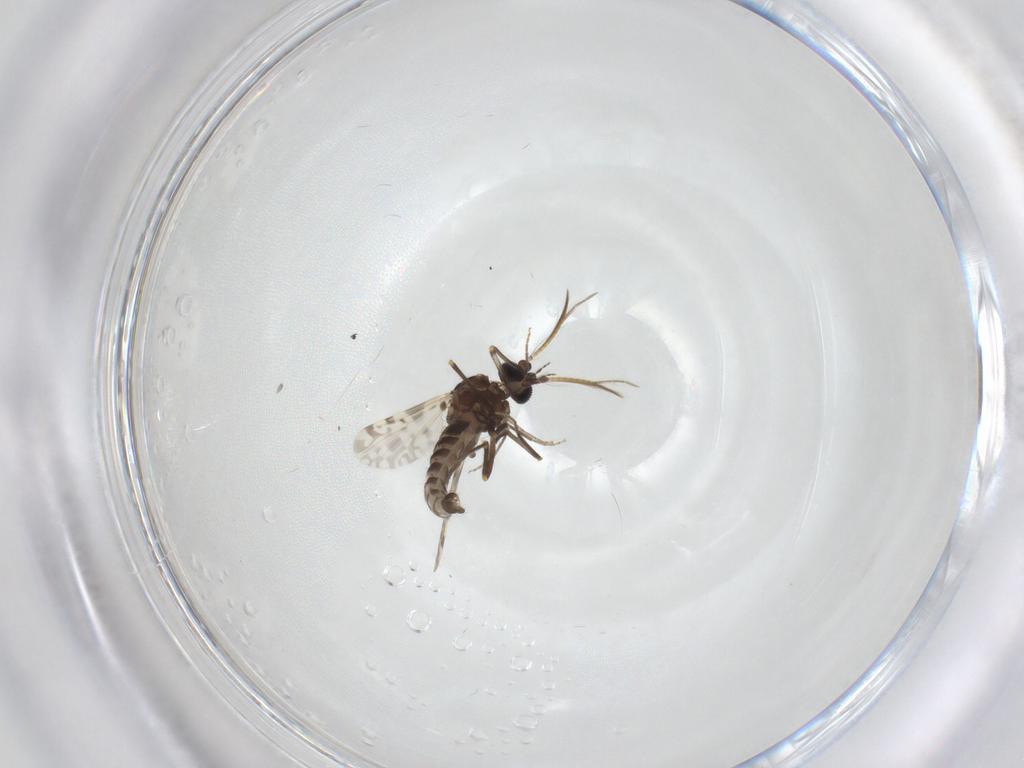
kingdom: Animalia
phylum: Arthropoda
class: Insecta
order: Diptera
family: Ceratopogonidae
